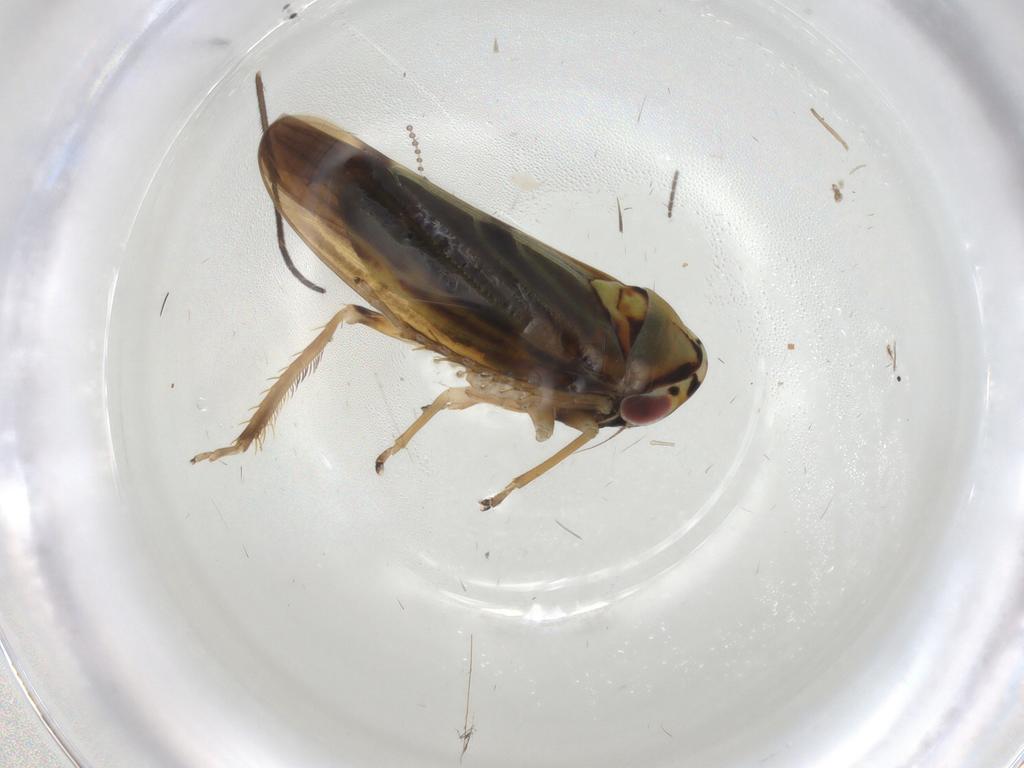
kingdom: Animalia
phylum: Arthropoda
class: Insecta
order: Hemiptera
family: Cicadellidae
